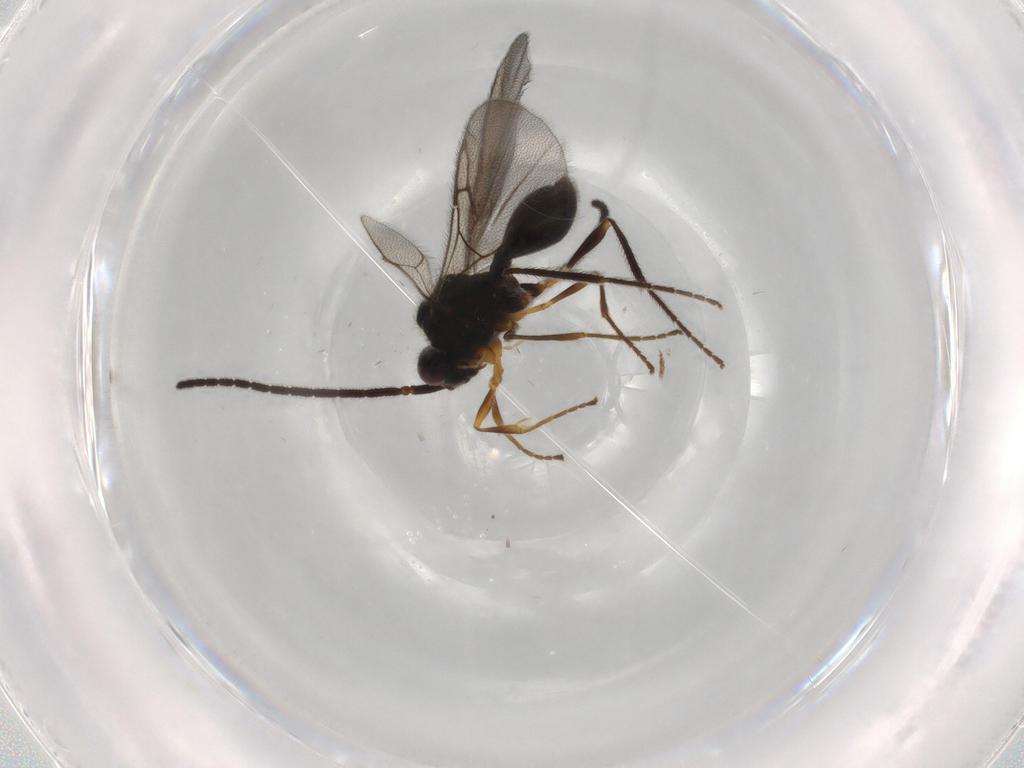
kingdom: Animalia
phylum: Arthropoda
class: Insecta
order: Hymenoptera
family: Diapriidae
